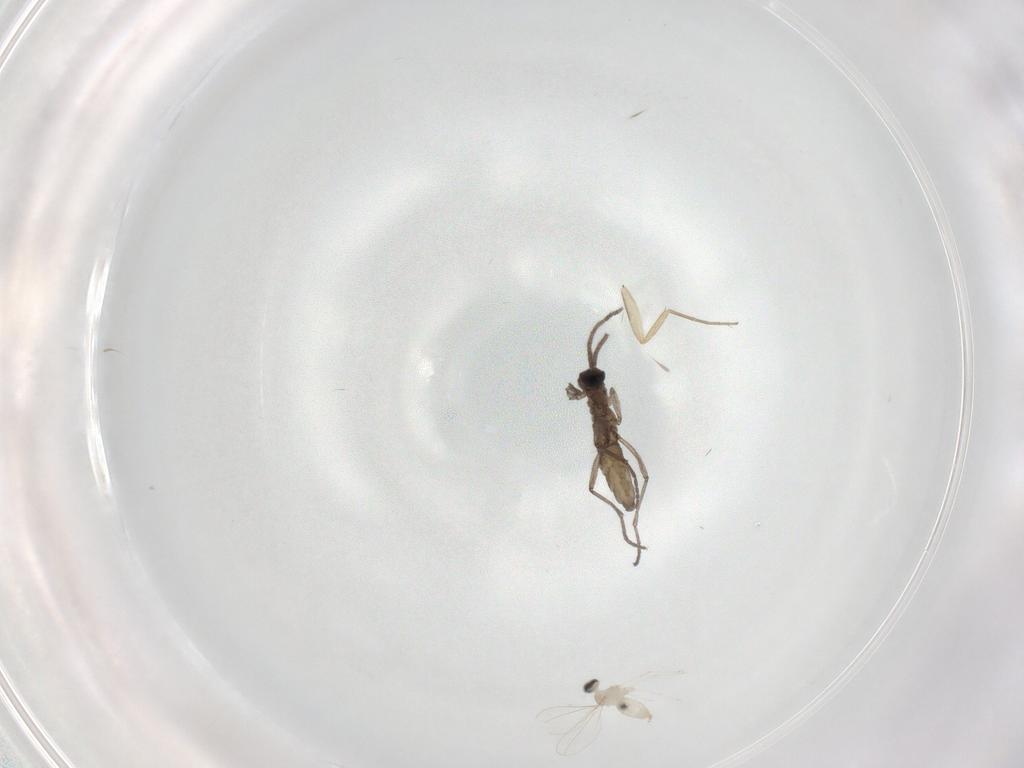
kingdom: Animalia
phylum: Arthropoda
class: Insecta
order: Diptera
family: Sciaridae
